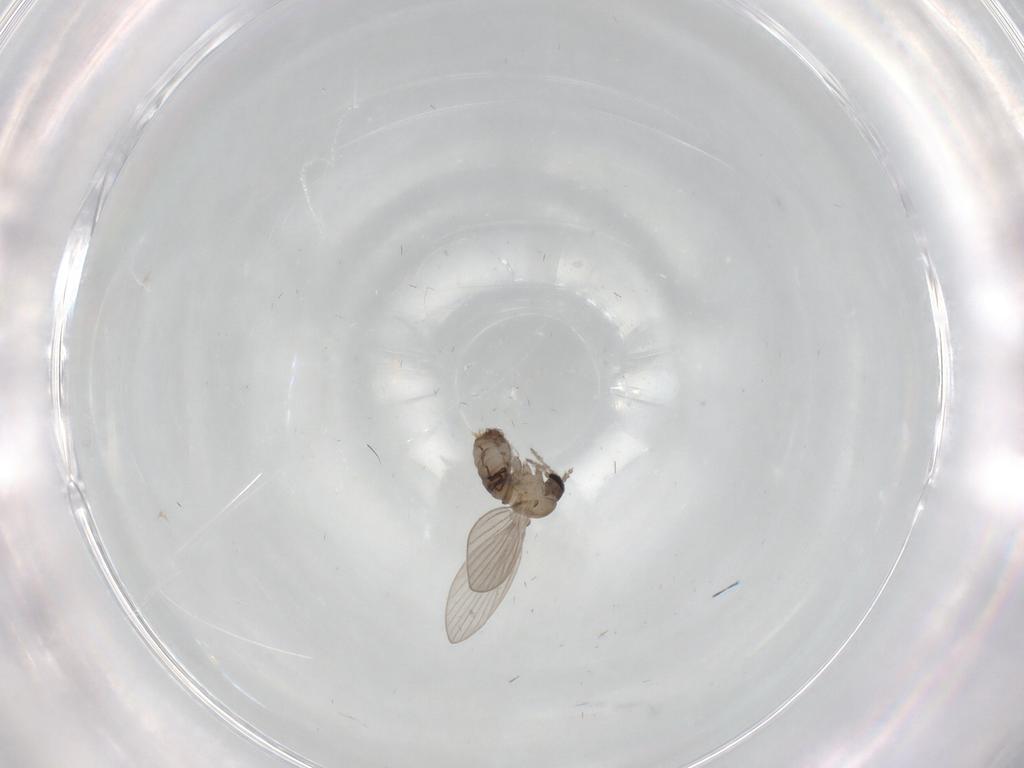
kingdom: Animalia
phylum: Arthropoda
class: Insecta
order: Diptera
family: Psychodidae
